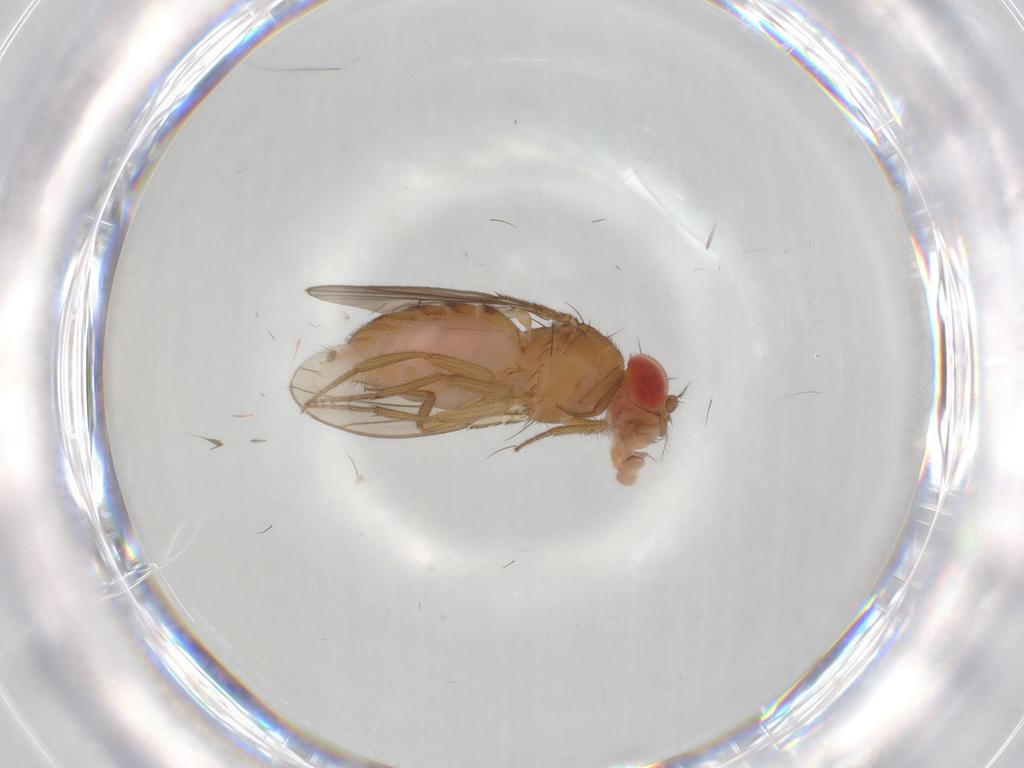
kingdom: Animalia
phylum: Arthropoda
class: Insecta
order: Diptera
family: Drosophilidae
